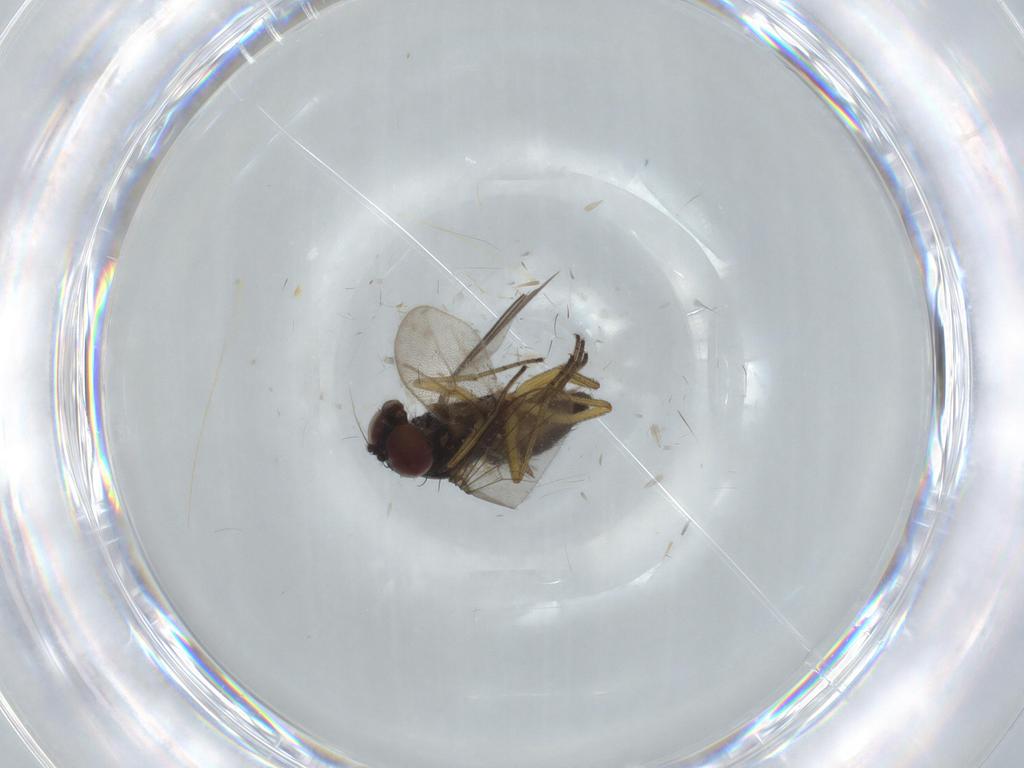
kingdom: Animalia
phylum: Arthropoda
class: Insecta
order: Diptera
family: Dolichopodidae
